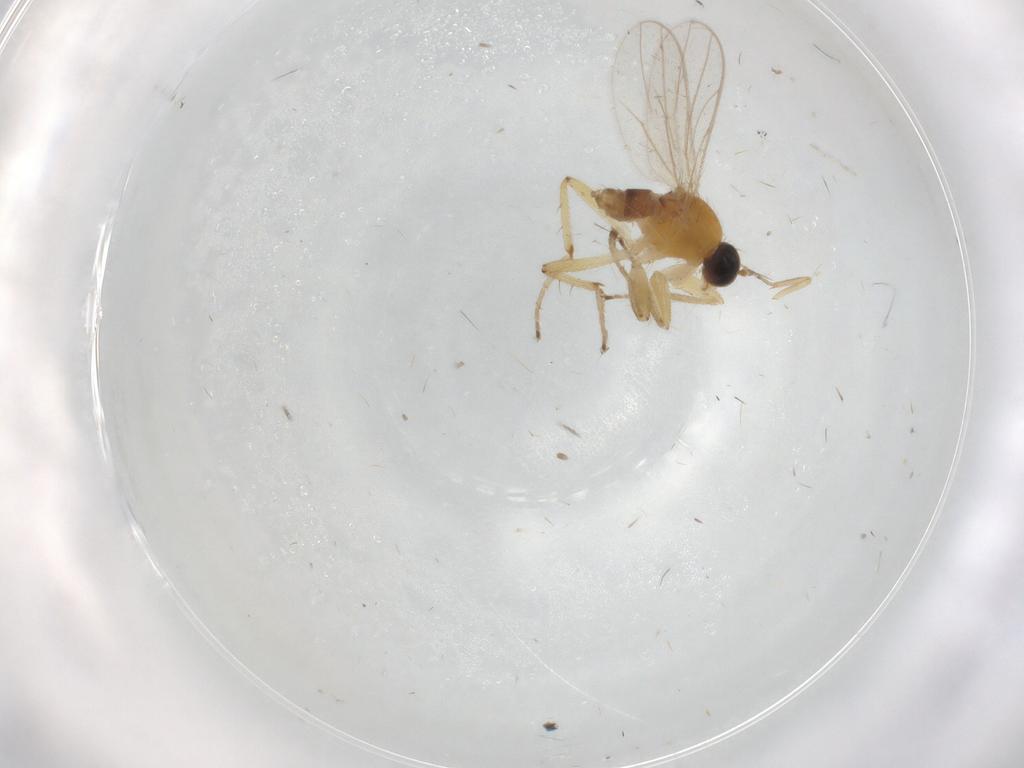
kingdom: Animalia
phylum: Arthropoda
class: Insecta
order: Diptera
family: Hybotidae
